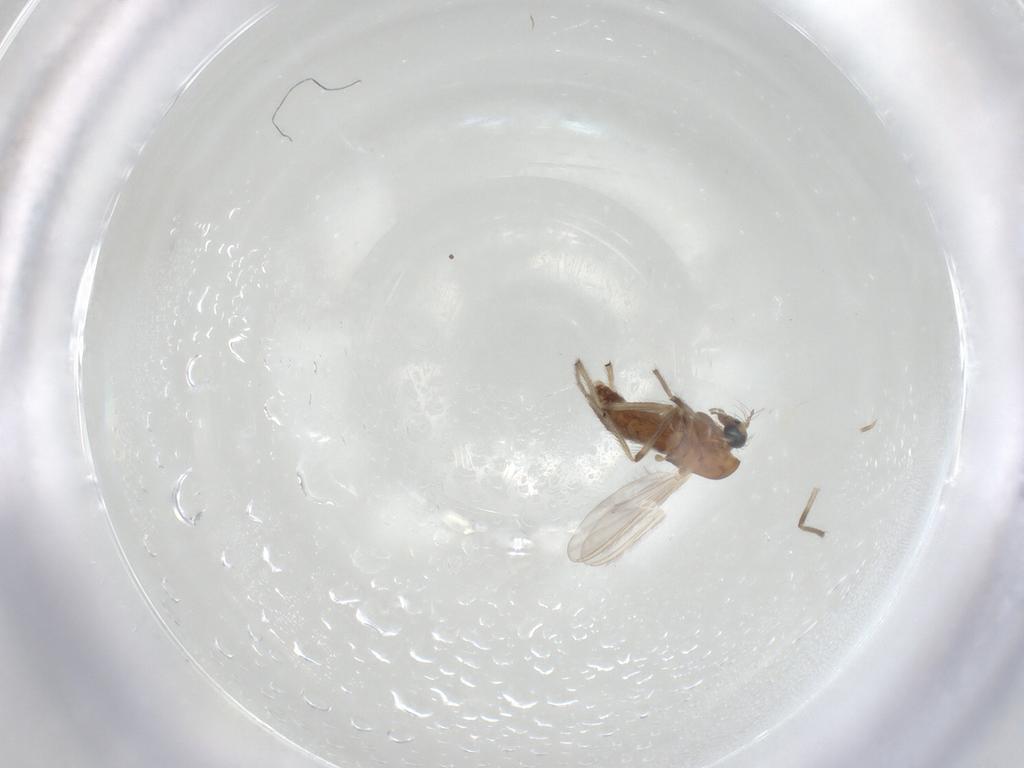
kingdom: Animalia
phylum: Arthropoda
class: Insecta
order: Diptera
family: Chironomidae
